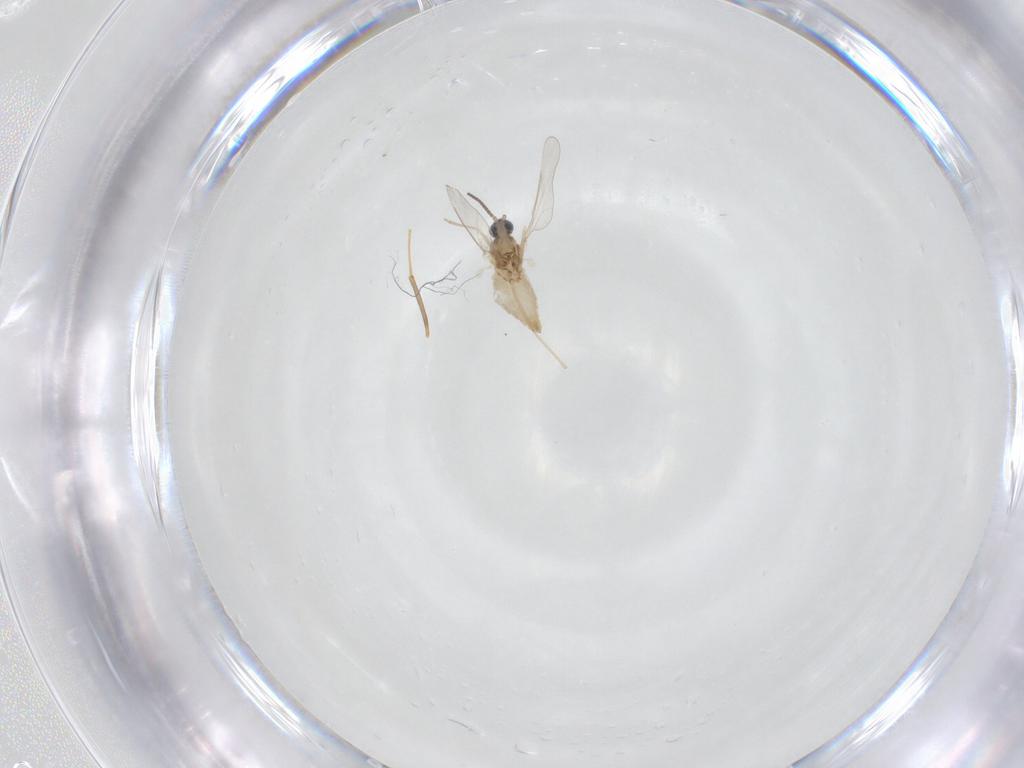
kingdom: Animalia
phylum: Arthropoda
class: Insecta
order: Diptera
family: Cecidomyiidae
